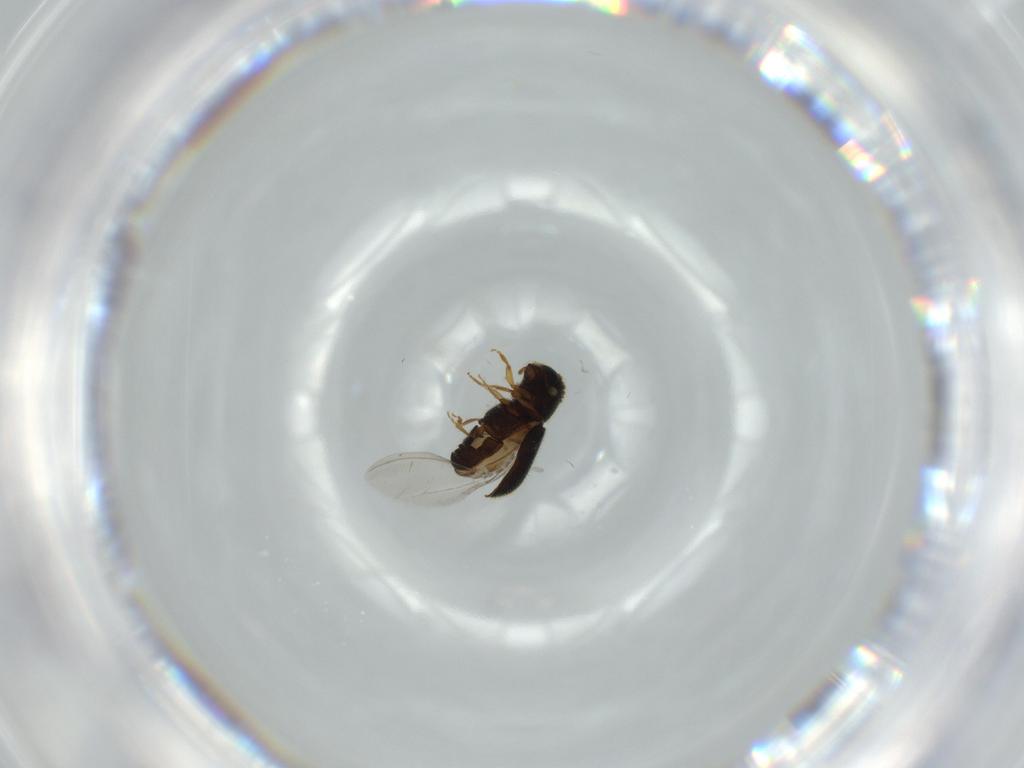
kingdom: Animalia
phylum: Arthropoda
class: Insecta
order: Coleoptera
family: Curculionidae
